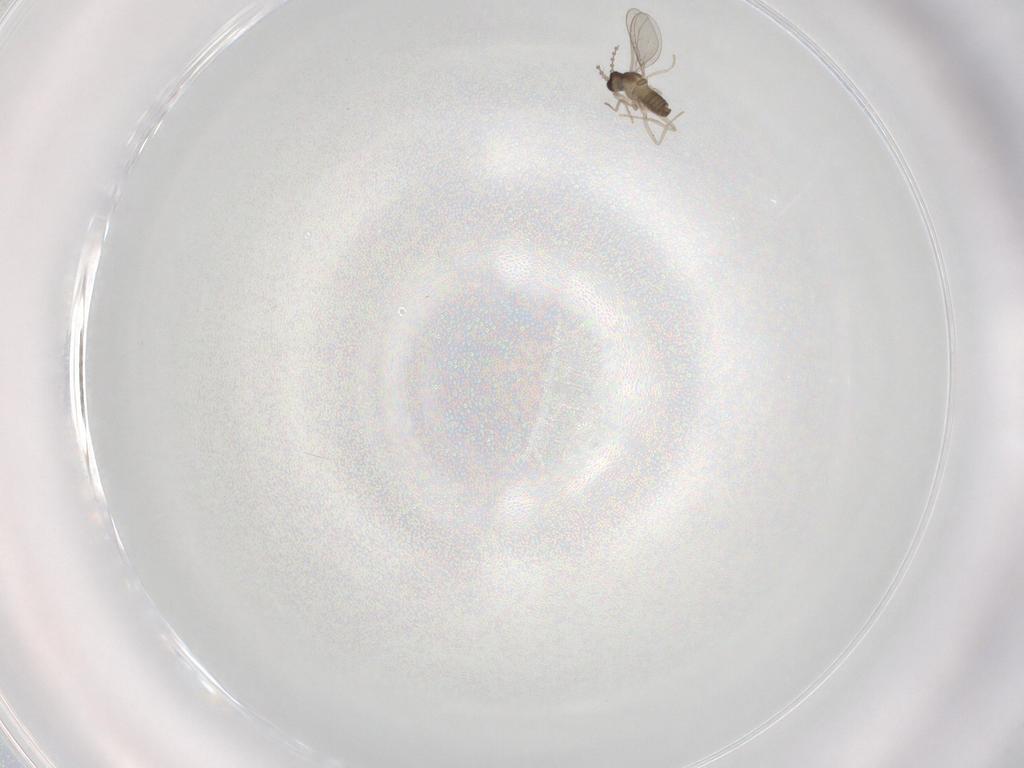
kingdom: Animalia
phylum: Arthropoda
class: Insecta
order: Diptera
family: Cecidomyiidae
